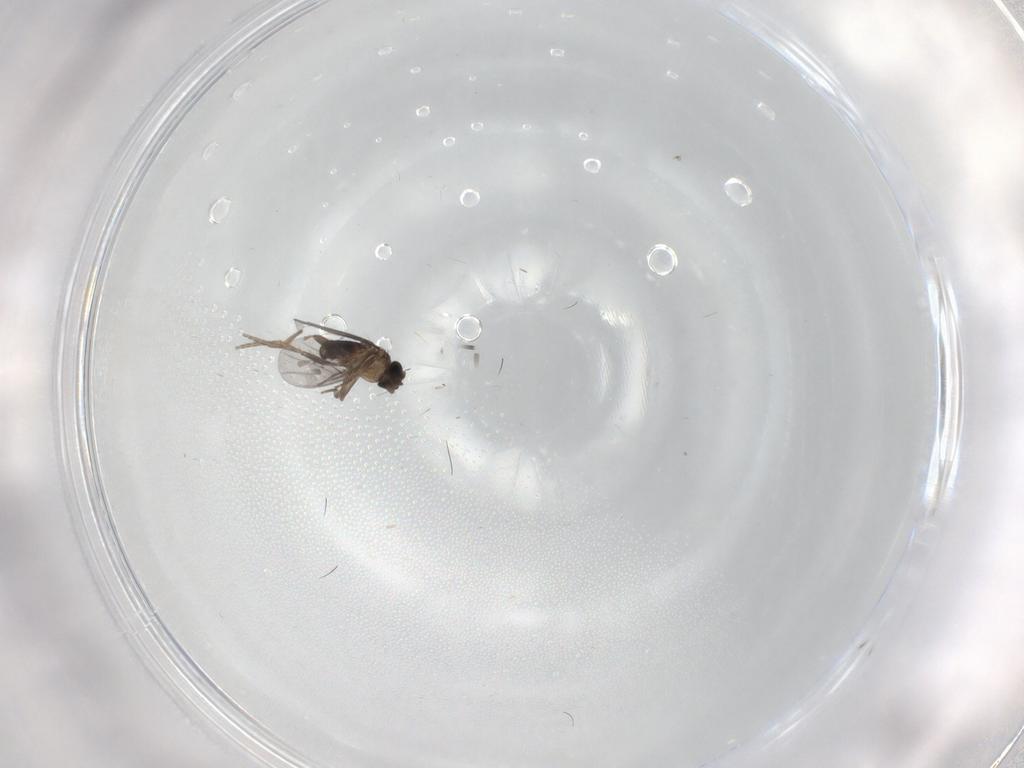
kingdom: Animalia
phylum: Arthropoda
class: Insecta
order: Diptera
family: Tabanidae
